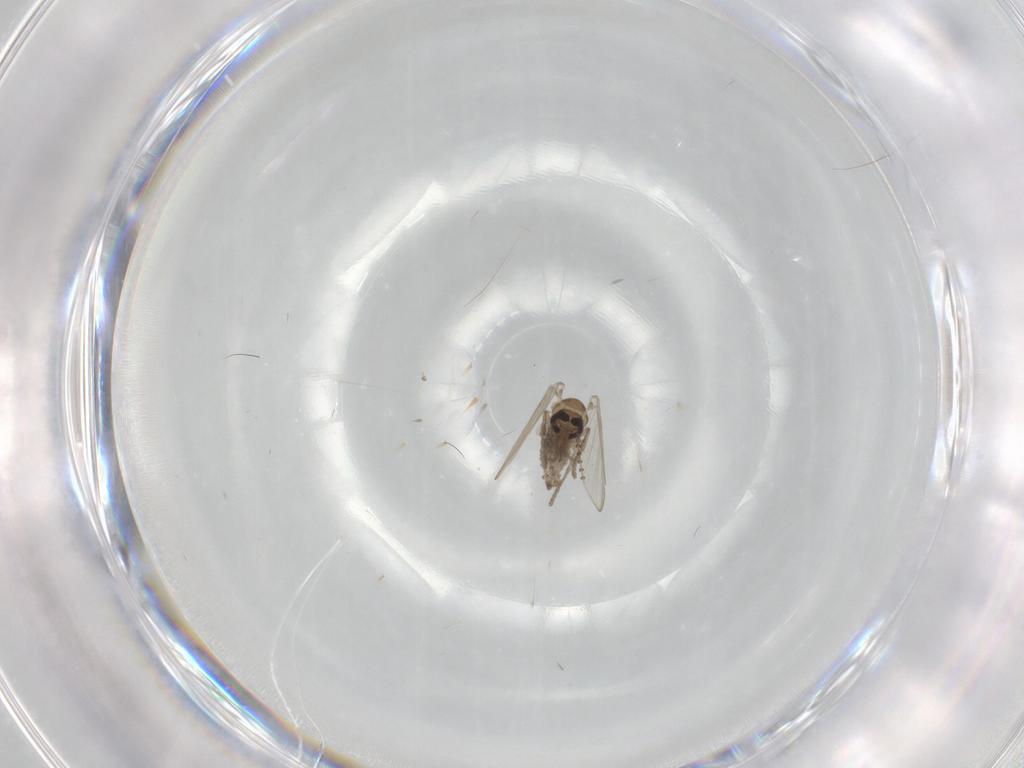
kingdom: Animalia
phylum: Arthropoda
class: Insecta
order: Diptera
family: Psychodidae
